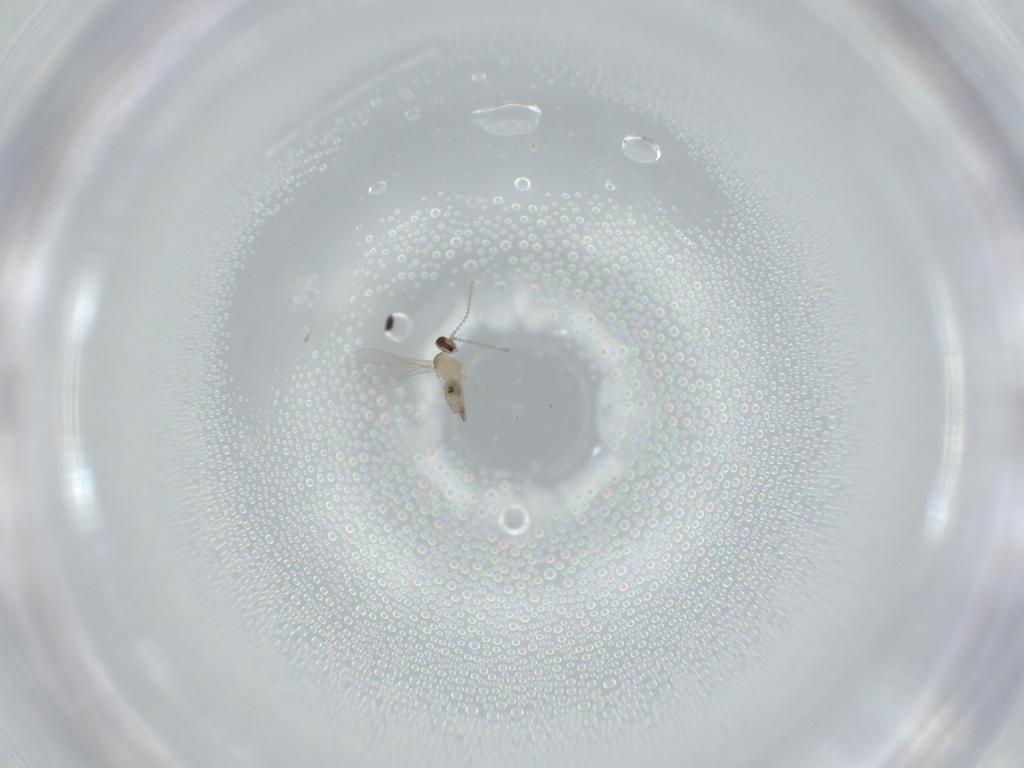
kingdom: Animalia
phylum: Arthropoda
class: Insecta
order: Diptera
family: Cecidomyiidae
